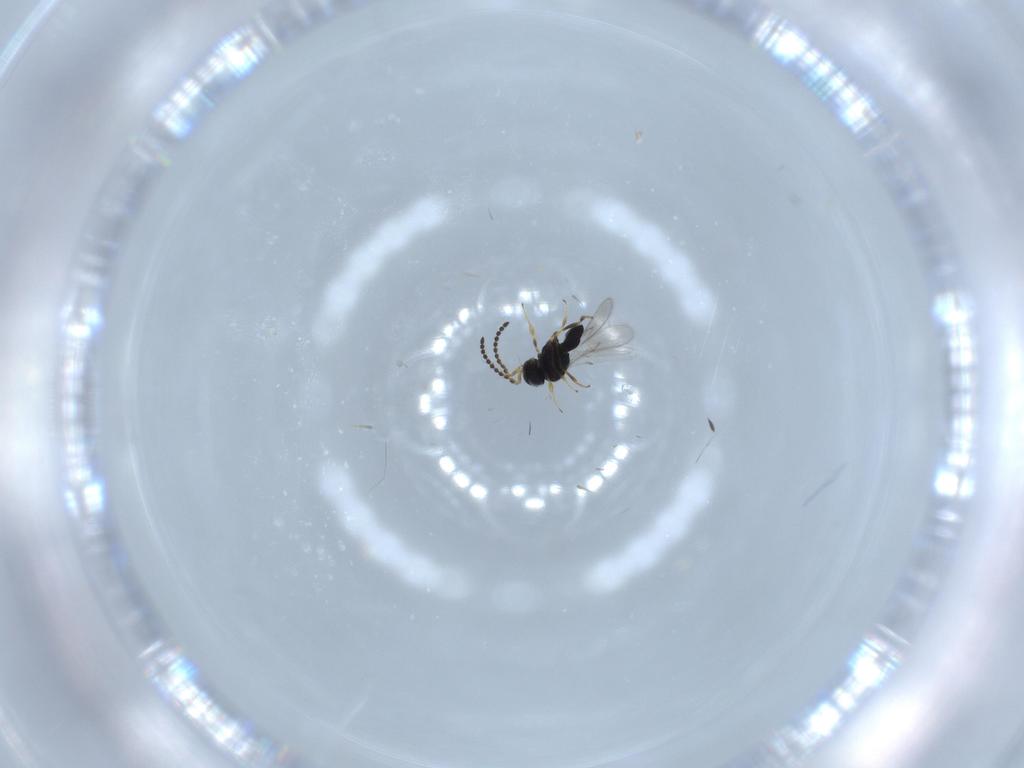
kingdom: Animalia
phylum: Arthropoda
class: Insecta
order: Hymenoptera
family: Scelionidae
